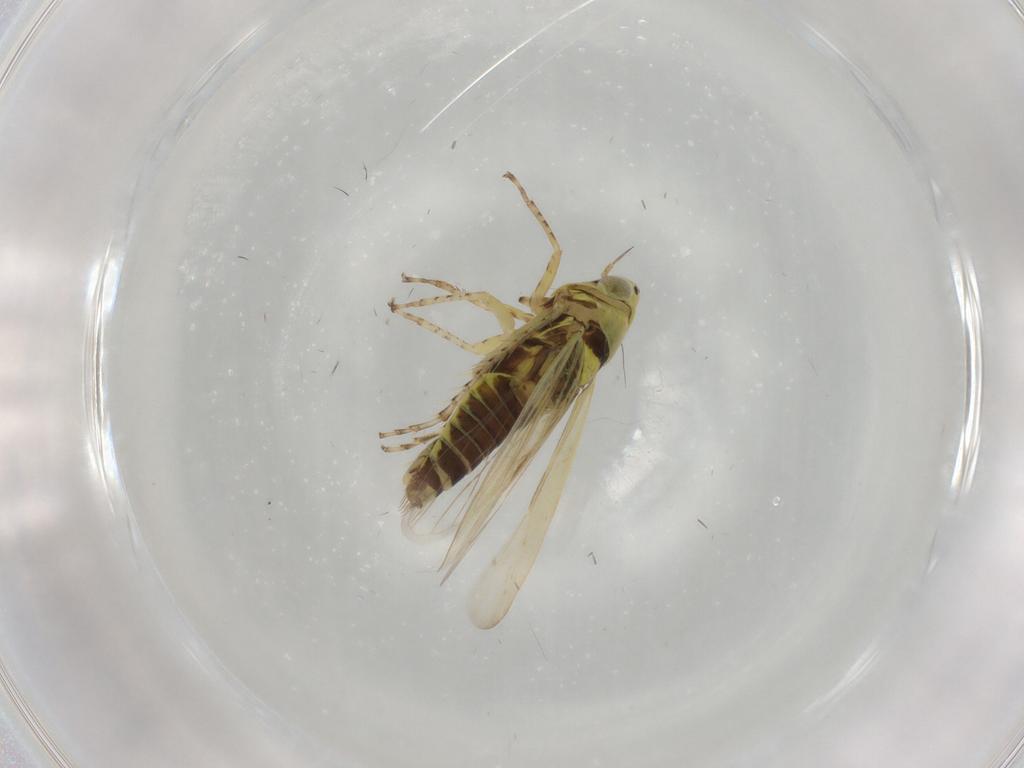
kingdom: Animalia
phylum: Arthropoda
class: Insecta
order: Hemiptera
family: Cicadellidae
